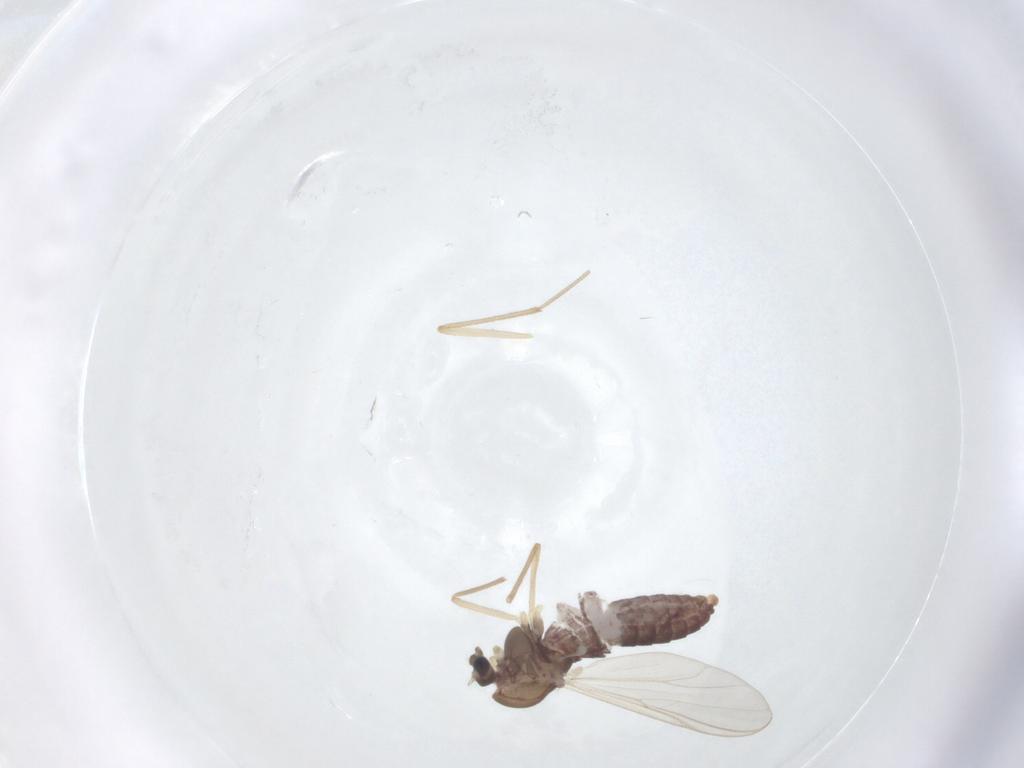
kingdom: Animalia
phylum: Arthropoda
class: Insecta
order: Diptera
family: Chironomidae
